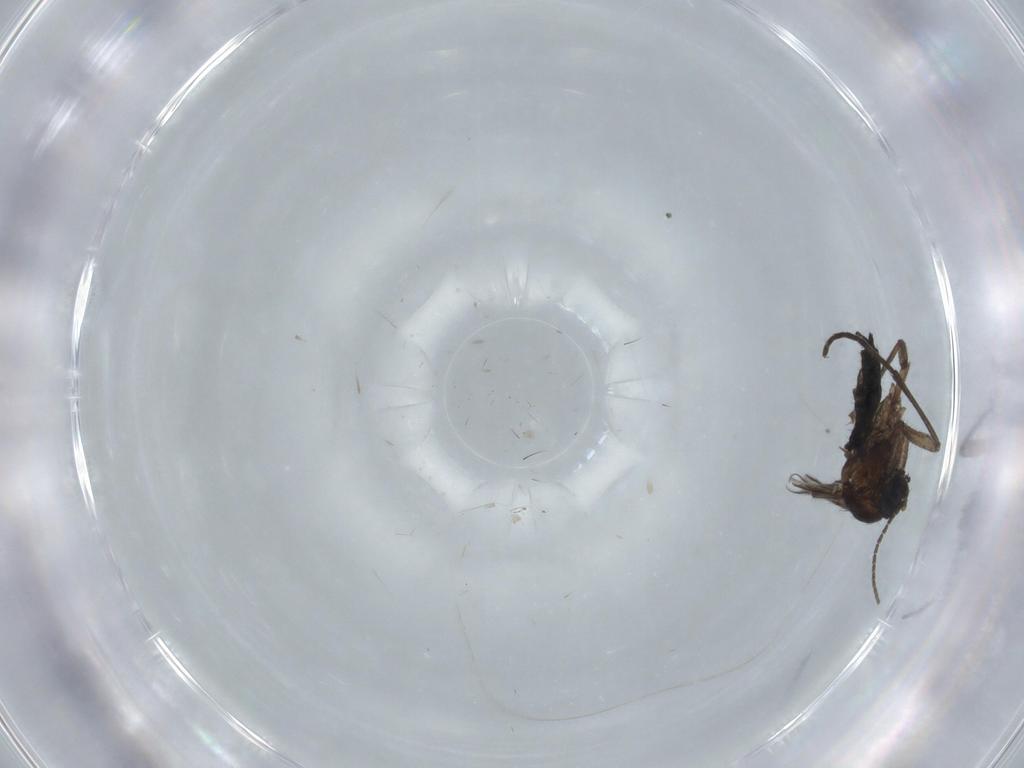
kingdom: Animalia
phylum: Arthropoda
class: Insecta
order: Diptera
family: Sciaridae
